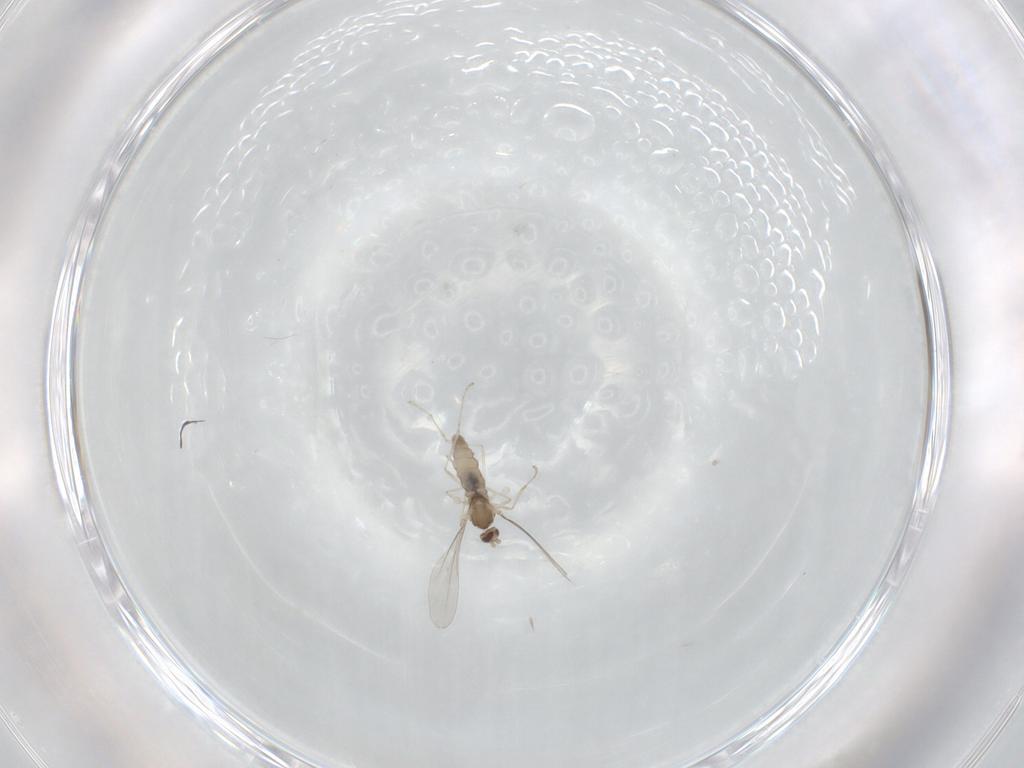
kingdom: Animalia
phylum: Arthropoda
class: Insecta
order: Diptera
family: Cecidomyiidae
